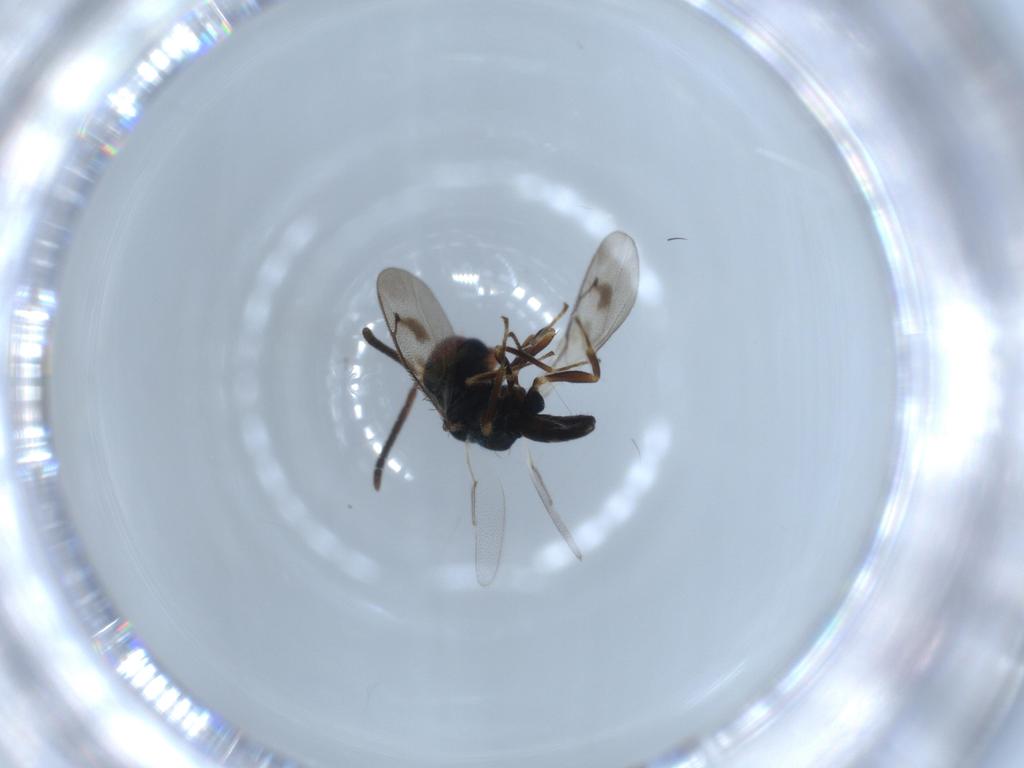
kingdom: Animalia
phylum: Arthropoda
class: Insecta
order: Hymenoptera
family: Pteromalidae
